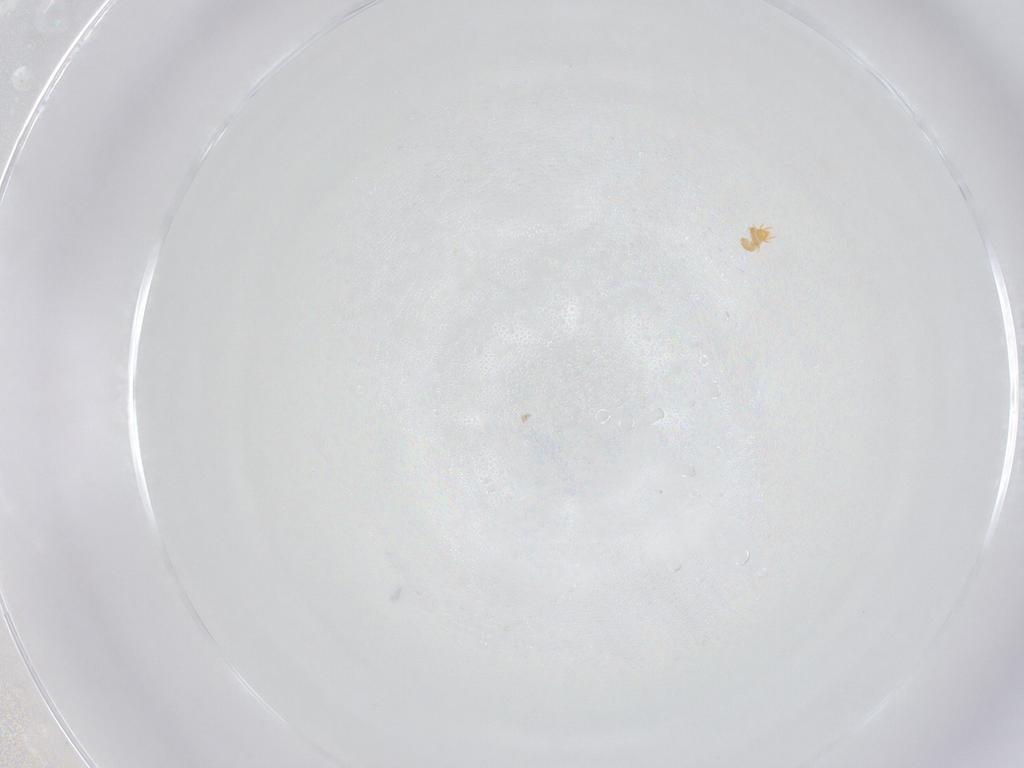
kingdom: Animalia
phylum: Arthropoda
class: Arachnida
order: Sarcoptiformes
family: Brachychthoniidae
